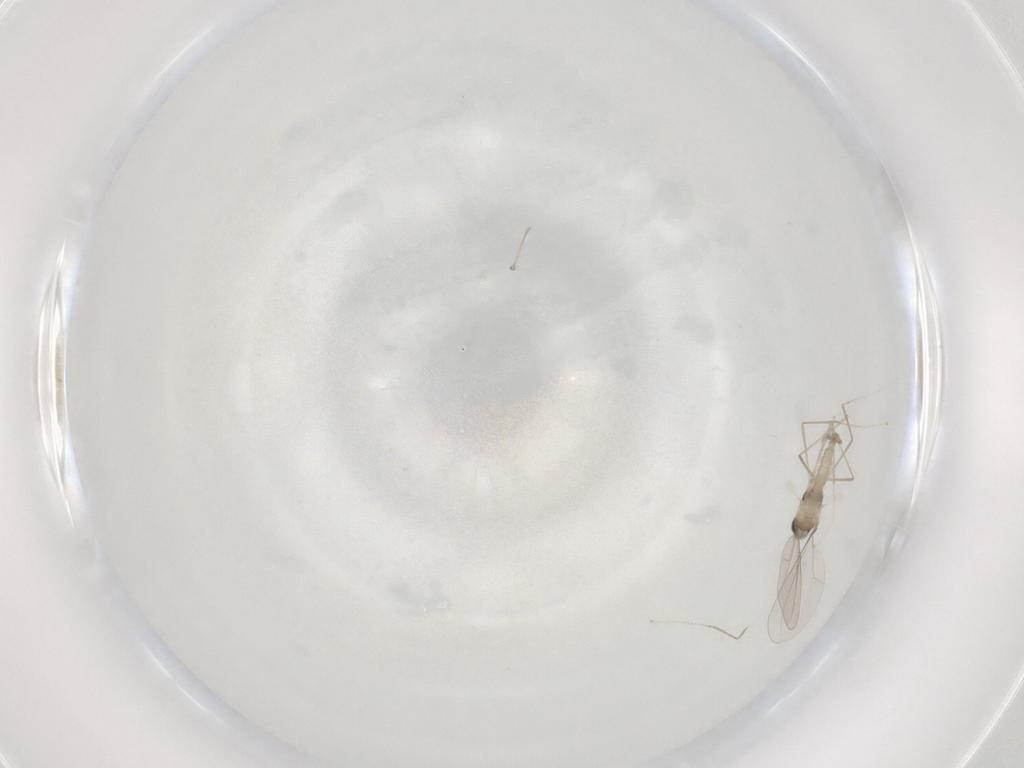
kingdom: Animalia
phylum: Arthropoda
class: Insecta
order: Diptera
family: Cecidomyiidae
